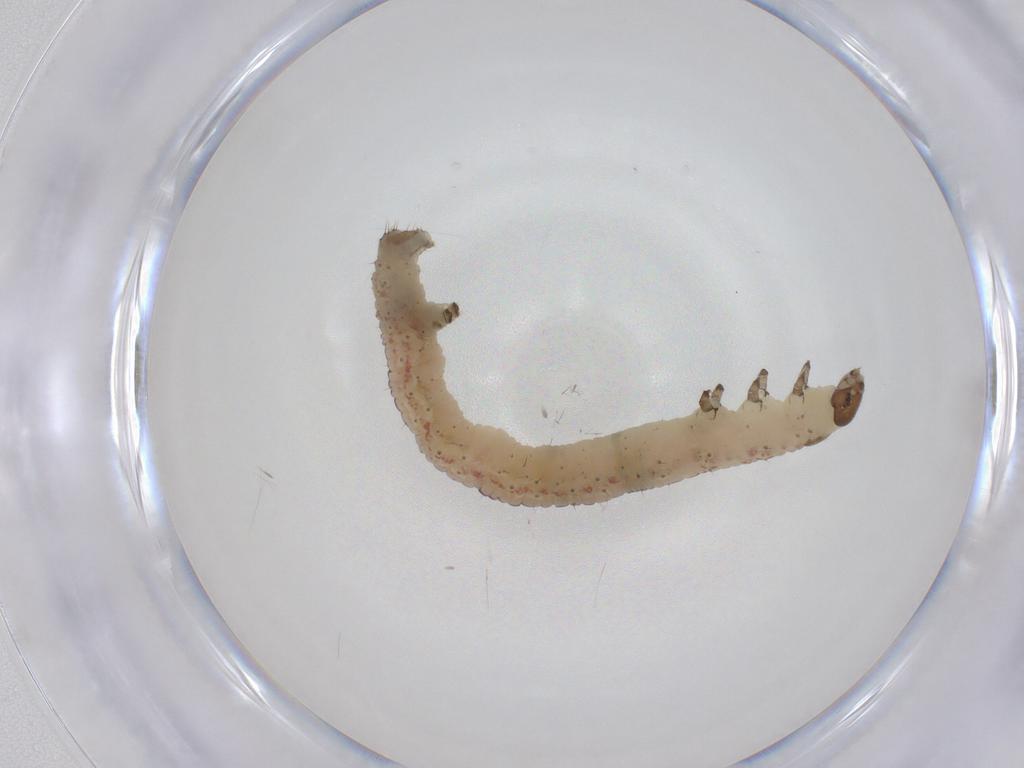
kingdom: Animalia
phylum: Arthropoda
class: Insecta
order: Lepidoptera
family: Geometridae
